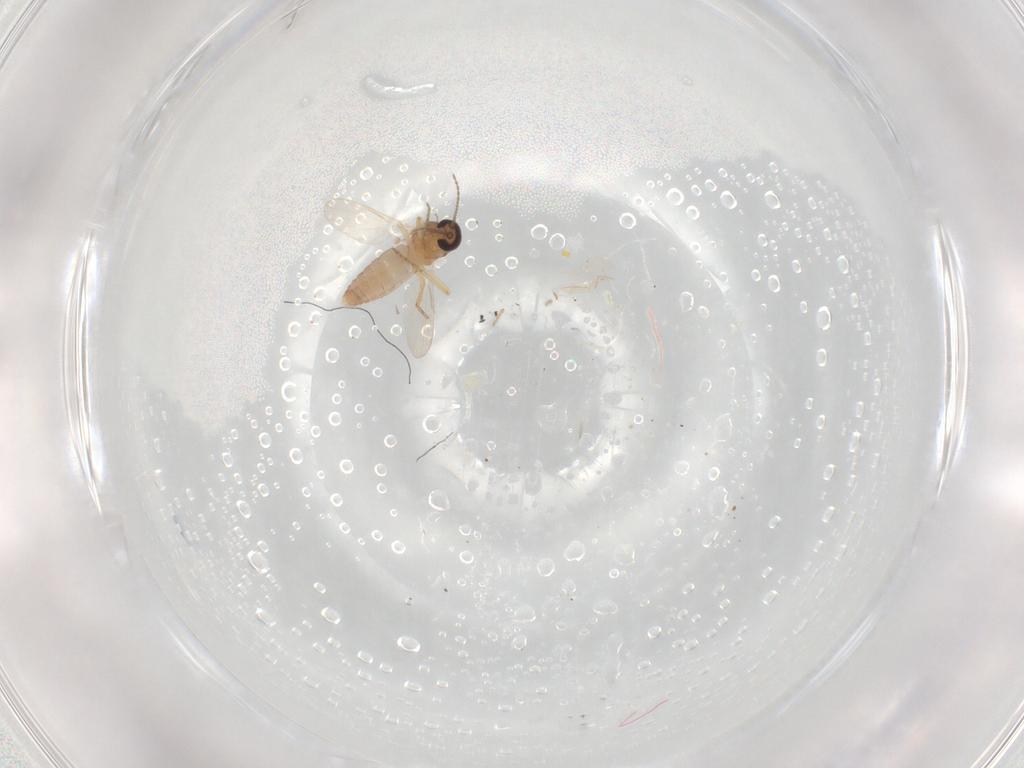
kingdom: Animalia
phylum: Arthropoda
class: Insecta
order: Diptera
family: Ceratopogonidae
